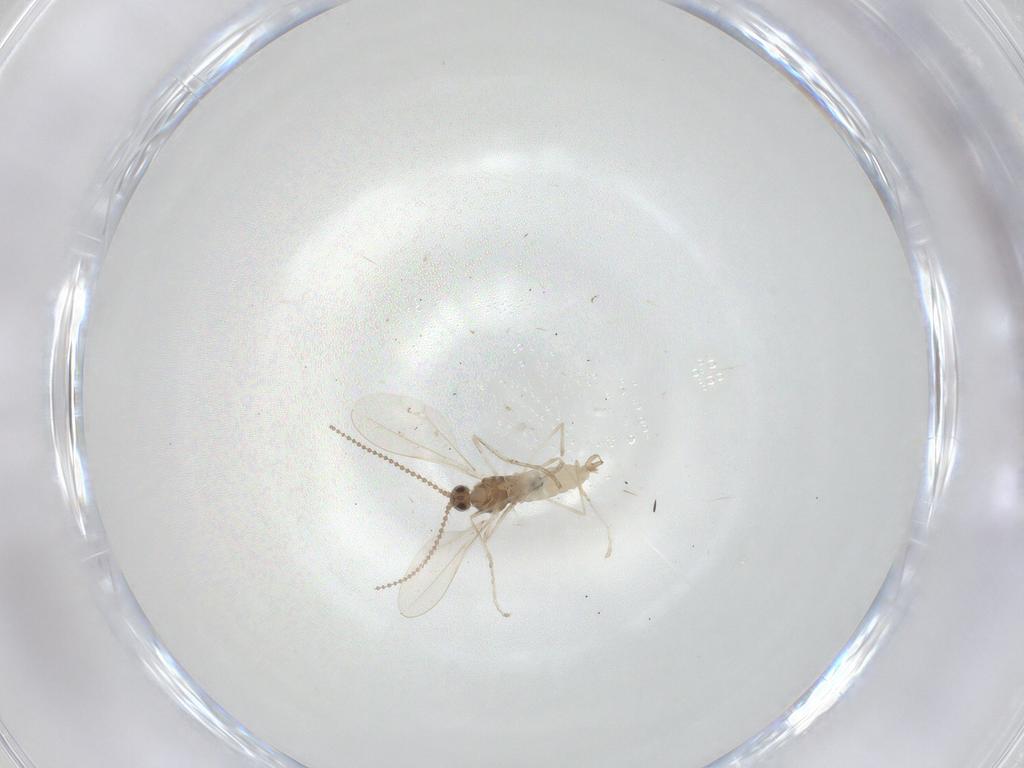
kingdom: Animalia
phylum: Arthropoda
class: Insecta
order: Diptera
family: Cecidomyiidae
